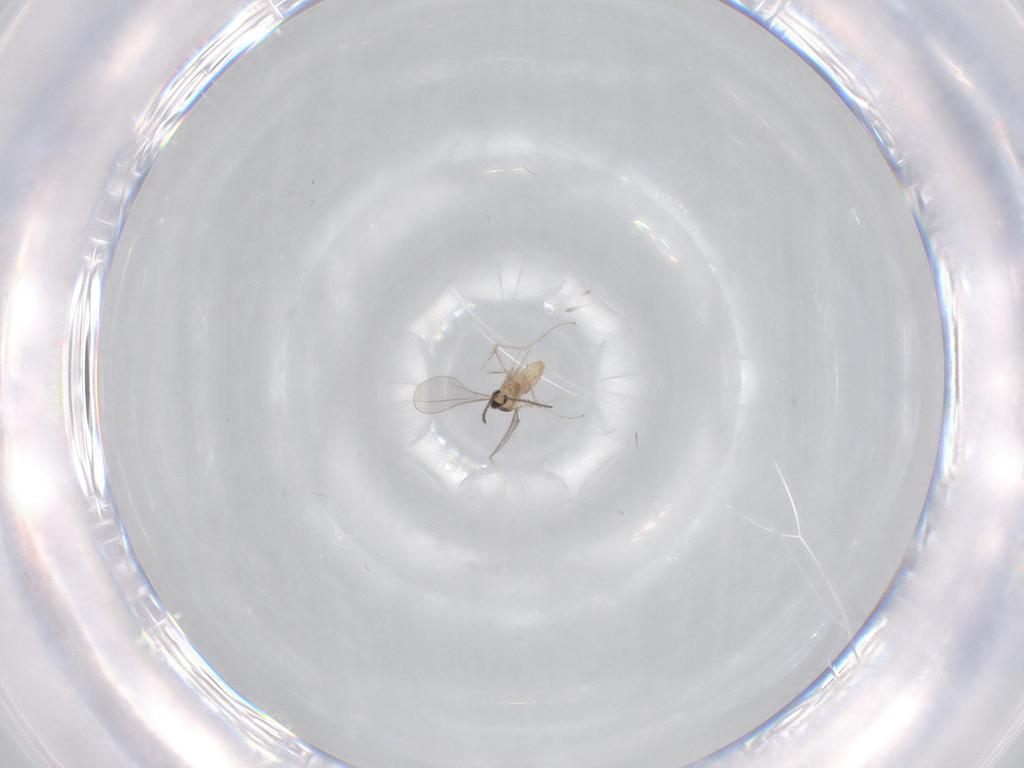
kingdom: Animalia
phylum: Arthropoda
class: Insecta
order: Diptera
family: Cecidomyiidae
